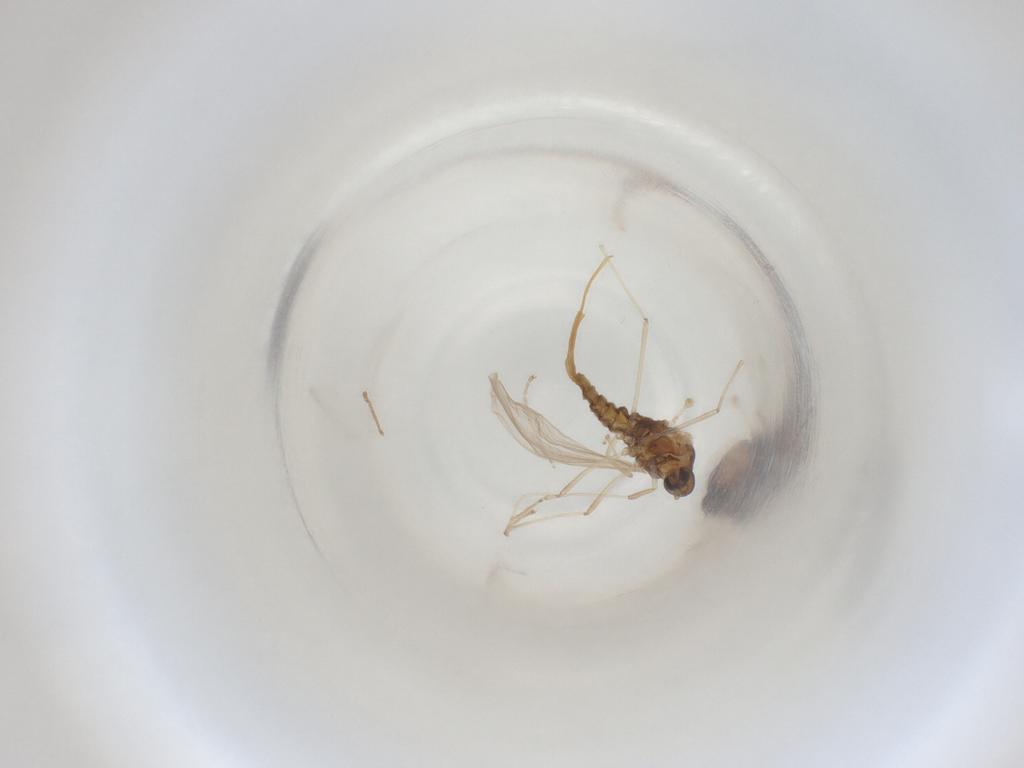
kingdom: Animalia
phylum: Arthropoda
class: Insecta
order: Diptera
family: Cecidomyiidae
